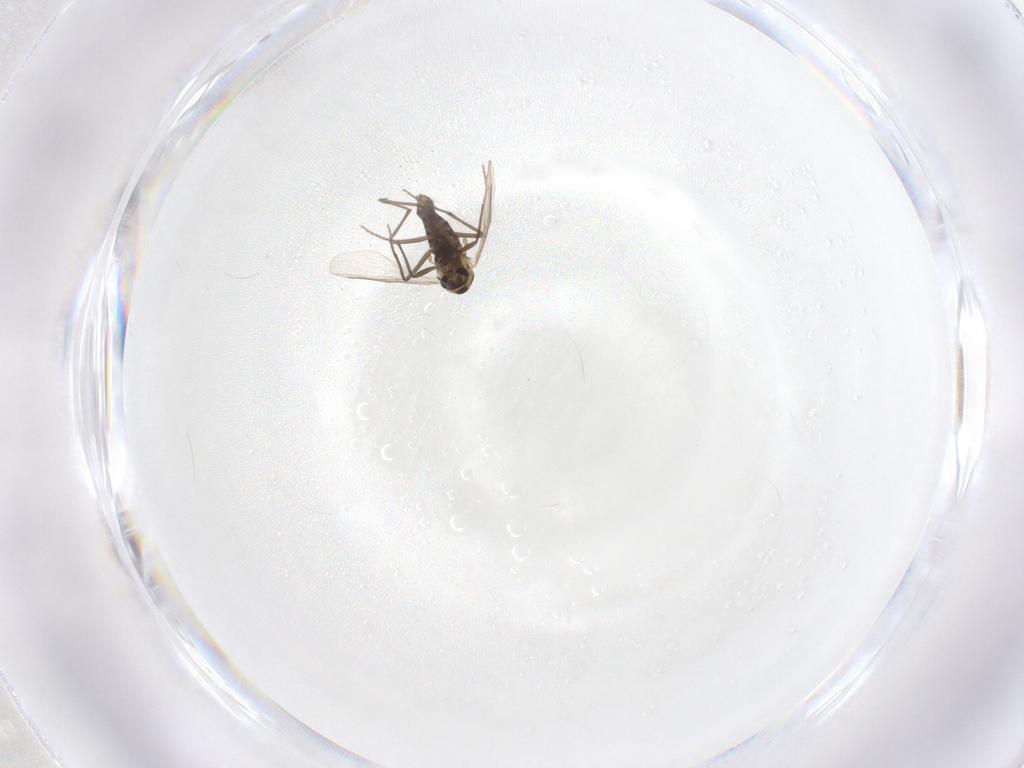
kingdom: Animalia
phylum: Arthropoda
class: Insecta
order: Diptera
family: Chironomidae
